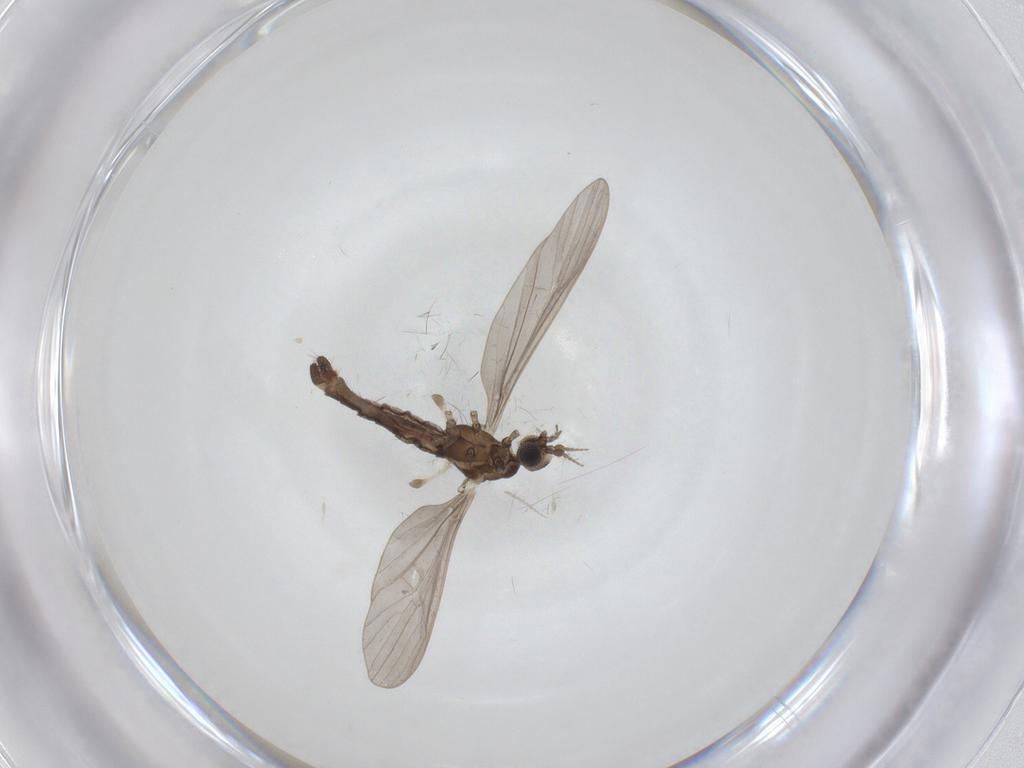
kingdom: Animalia
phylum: Arthropoda
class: Insecta
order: Diptera
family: Limoniidae
